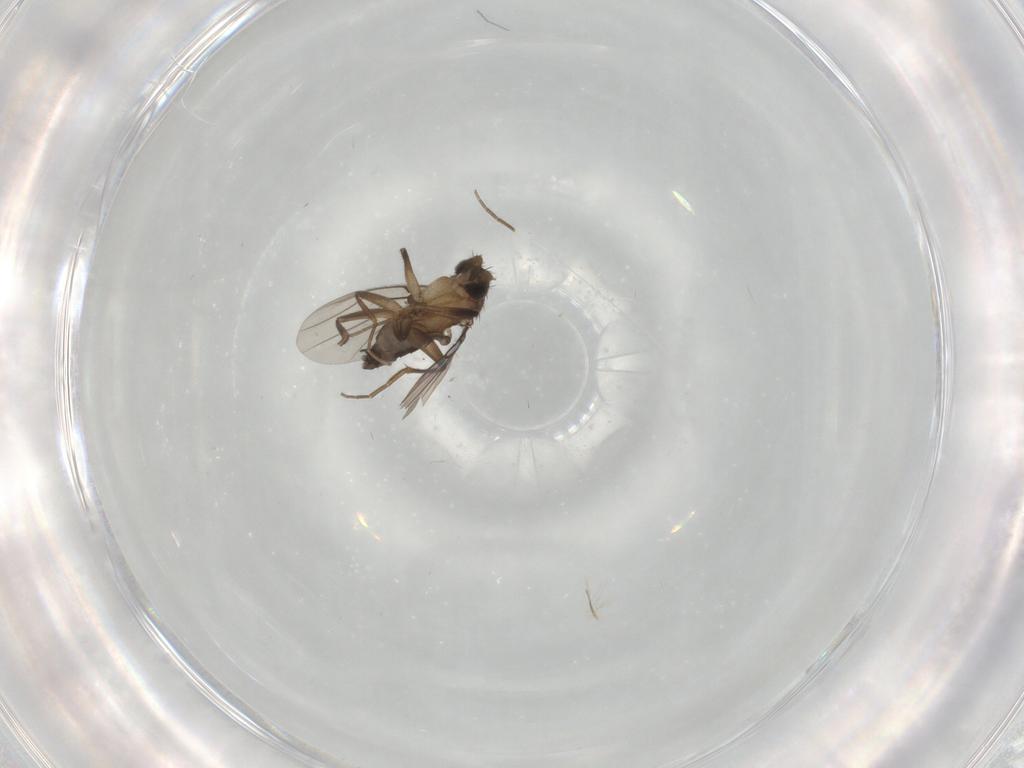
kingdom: Animalia
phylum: Arthropoda
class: Insecta
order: Diptera
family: Phoridae
